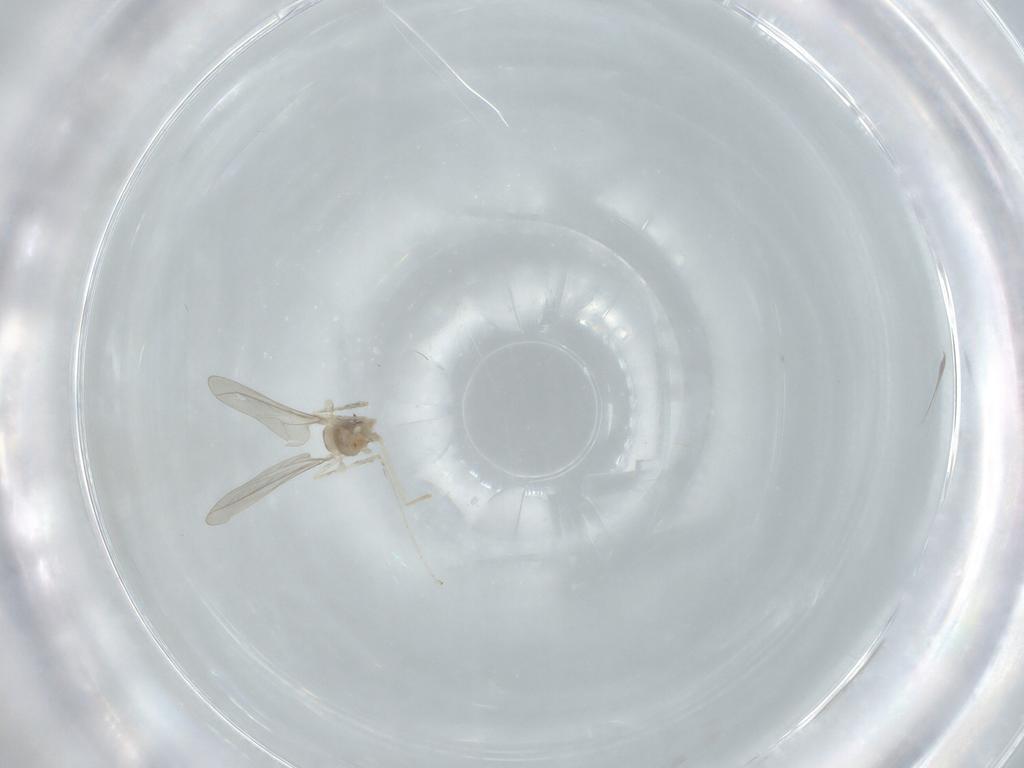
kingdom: Animalia
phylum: Arthropoda
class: Insecta
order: Diptera
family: Cecidomyiidae
